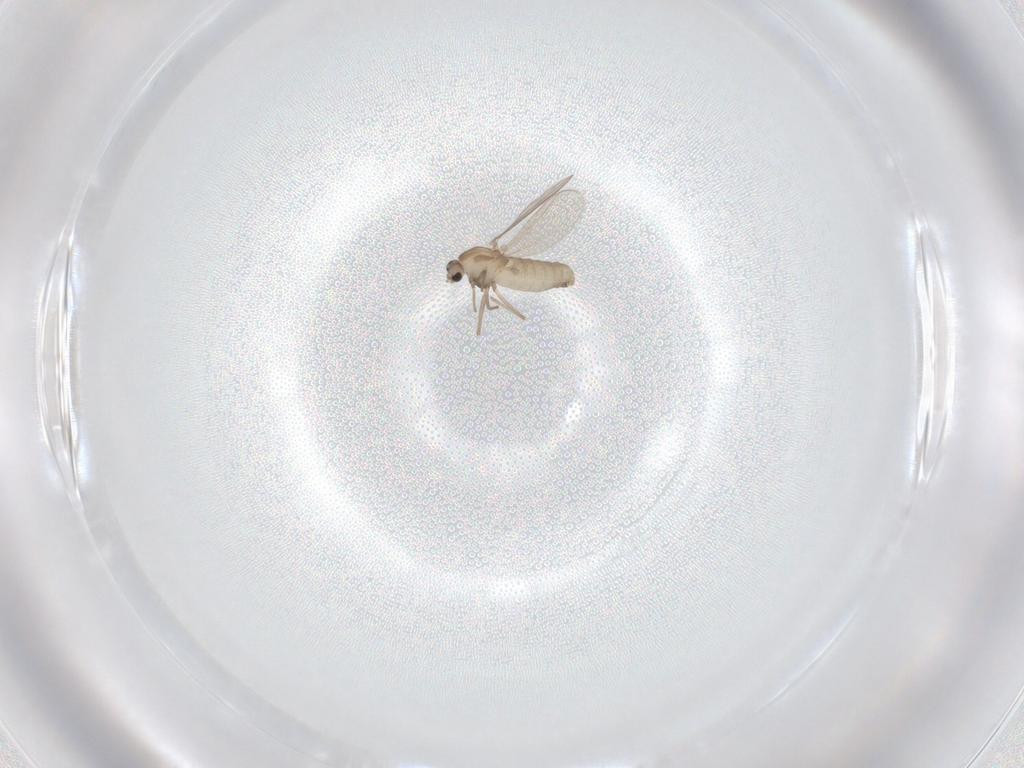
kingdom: Animalia
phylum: Arthropoda
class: Insecta
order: Diptera
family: Chironomidae
